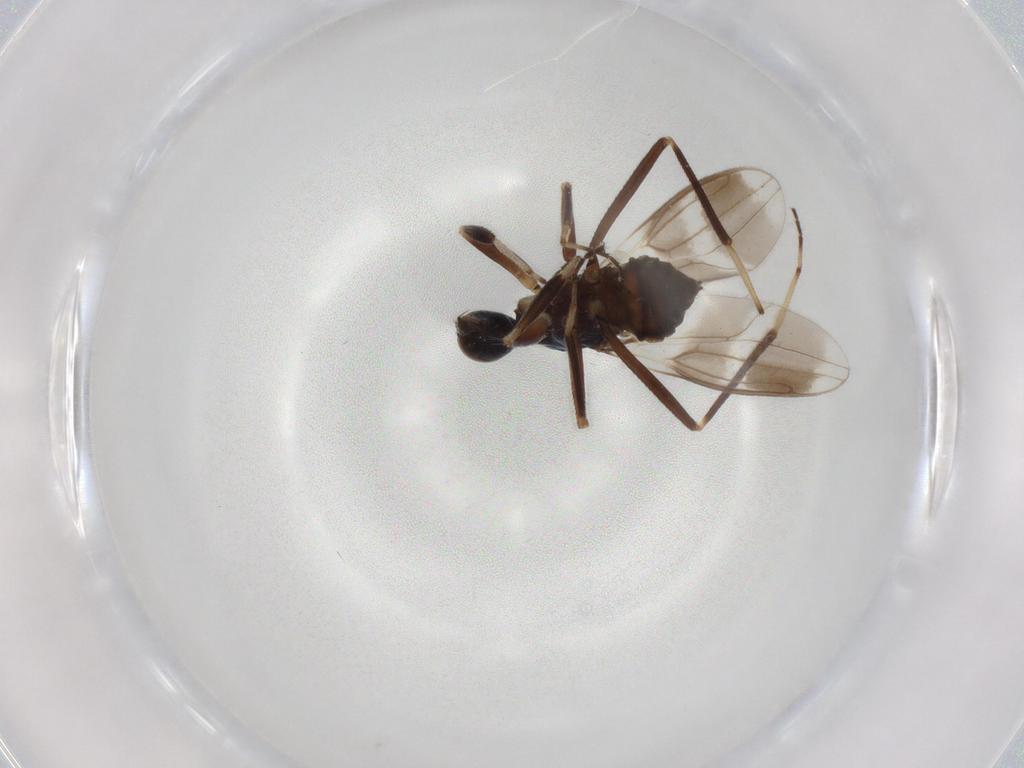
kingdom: Animalia
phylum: Arthropoda
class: Insecta
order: Diptera
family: Hybotidae
